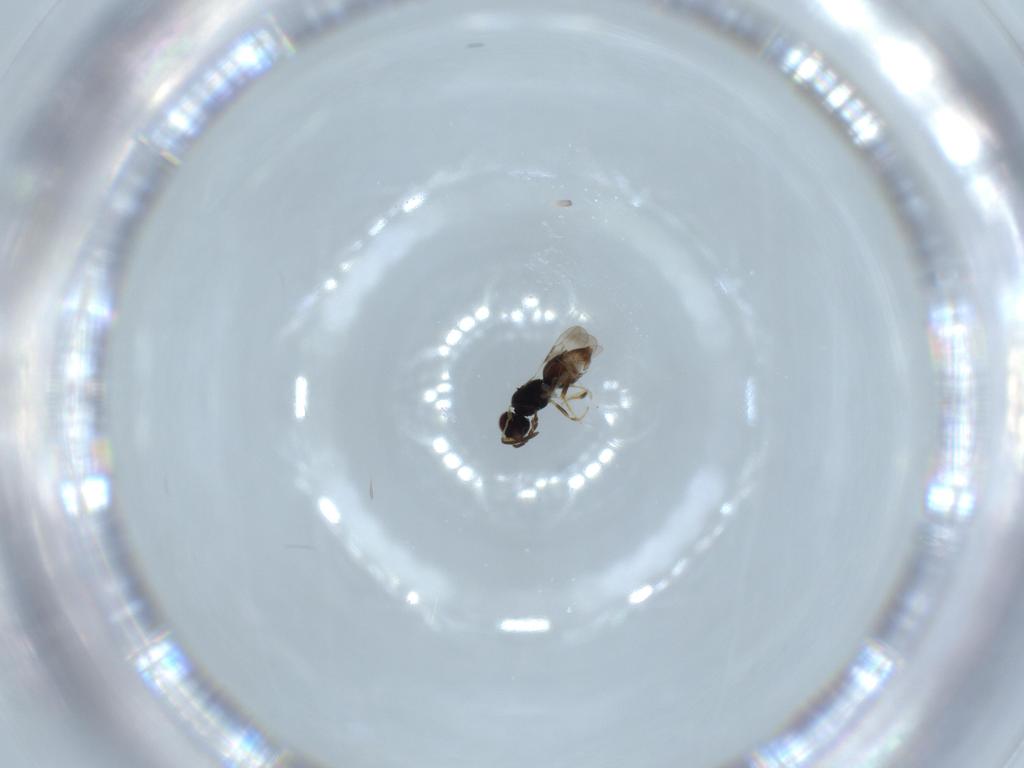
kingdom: Animalia
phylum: Arthropoda
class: Insecta
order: Hymenoptera
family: Ceraphronidae
